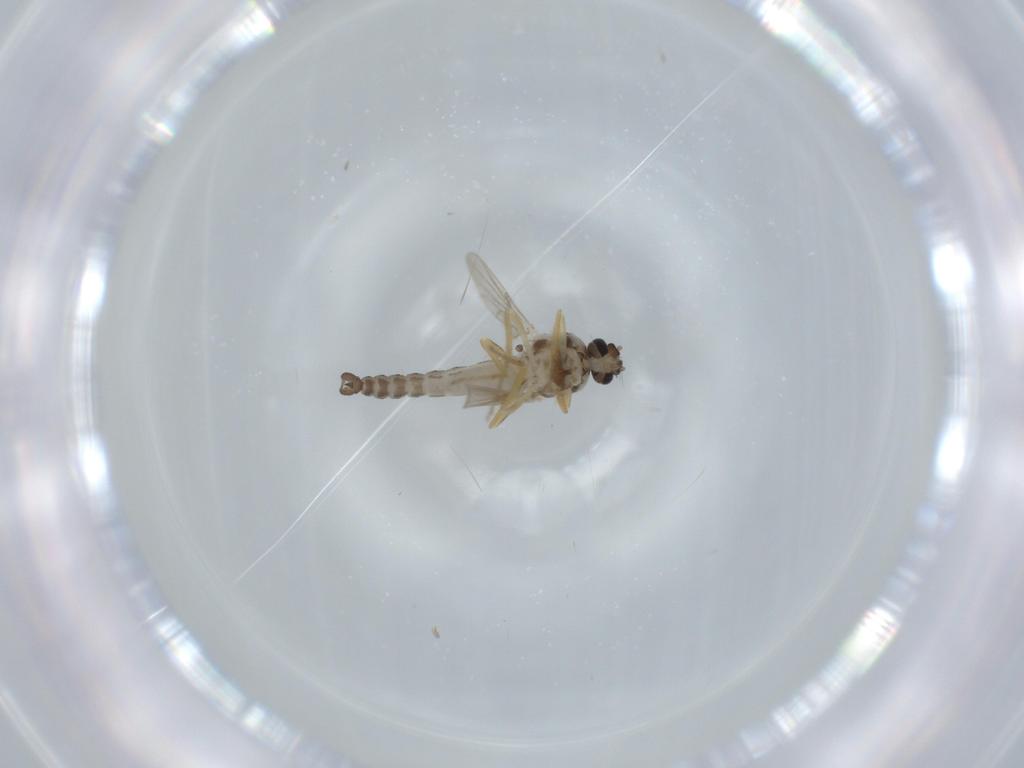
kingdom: Animalia
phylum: Arthropoda
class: Insecta
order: Diptera
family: Ceratopogonidae
